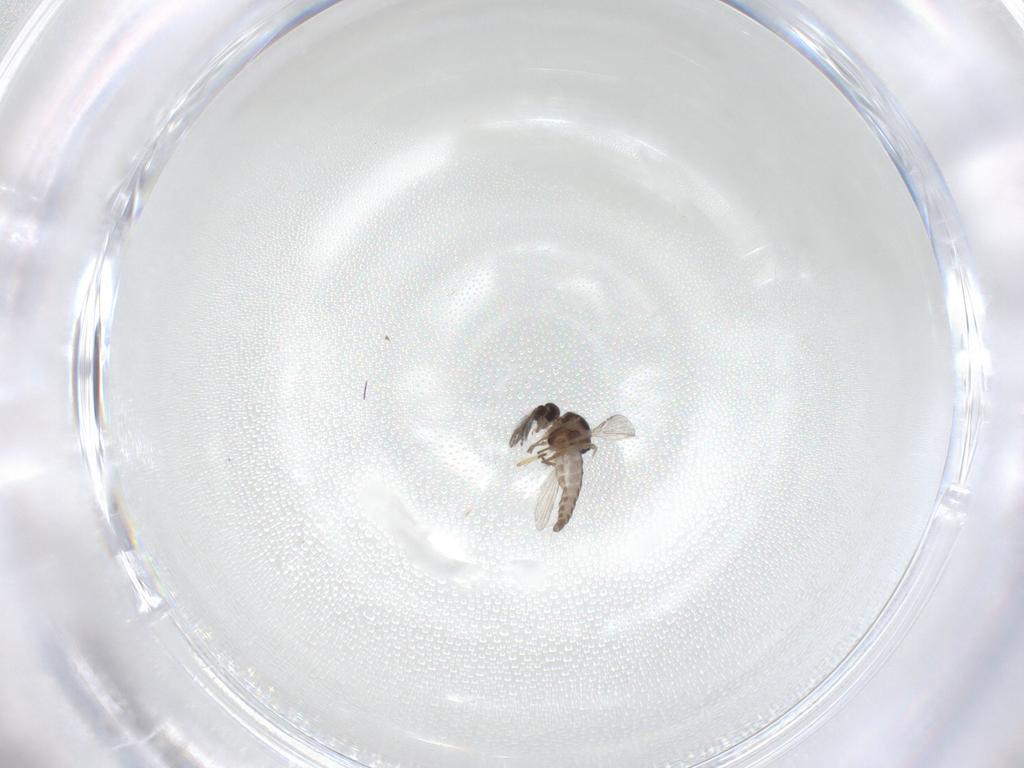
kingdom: Animalia
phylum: Arthropoda
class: Insecta
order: Diptera
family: Ceratopogonidae
